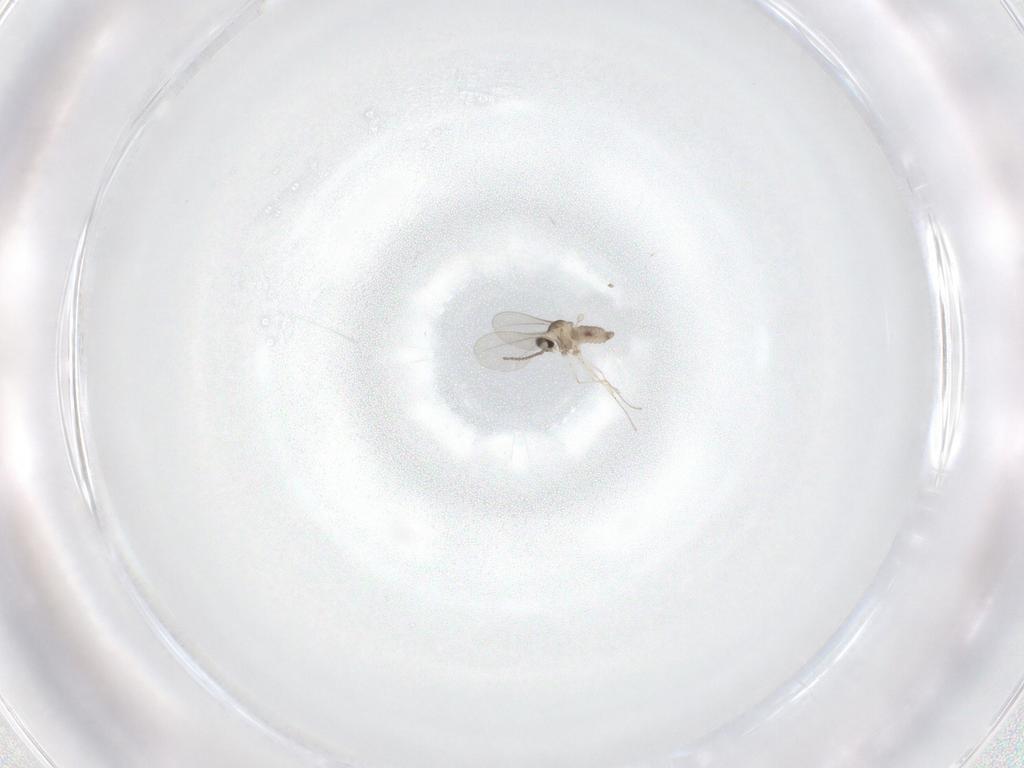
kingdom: Animalia
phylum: Arthropoda
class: Insecta
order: Diptera
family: Cecidomyiidae
